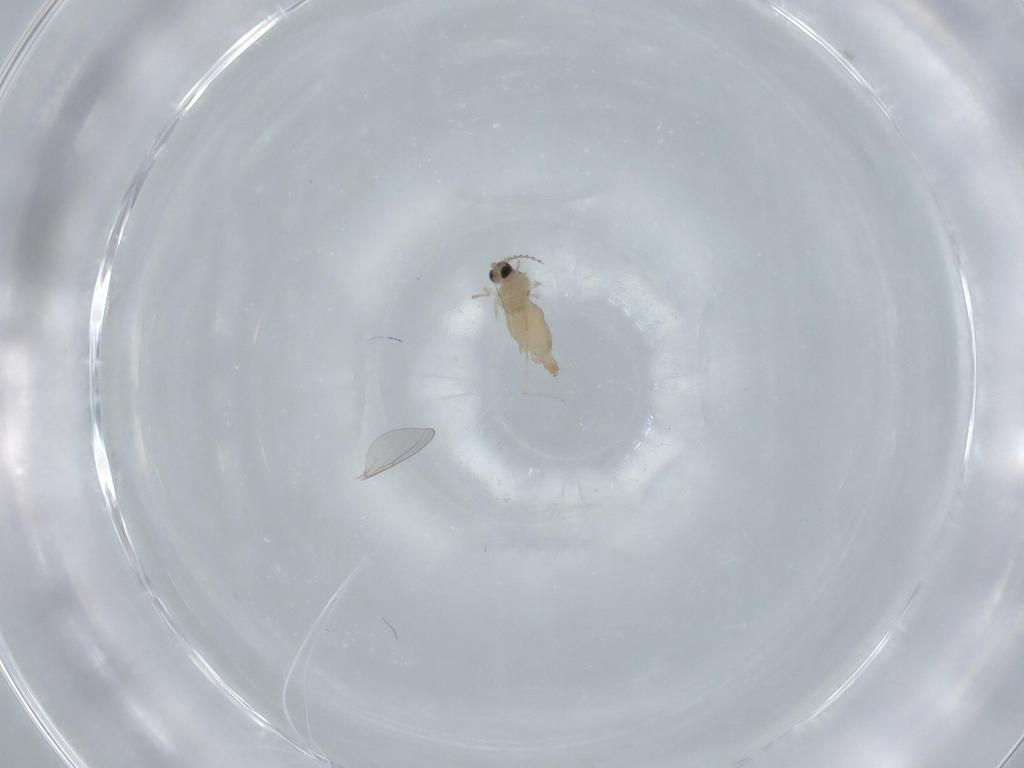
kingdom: Animalia
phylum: Arthropoda
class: Insecta
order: Diptera
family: Cecidomyiidae
